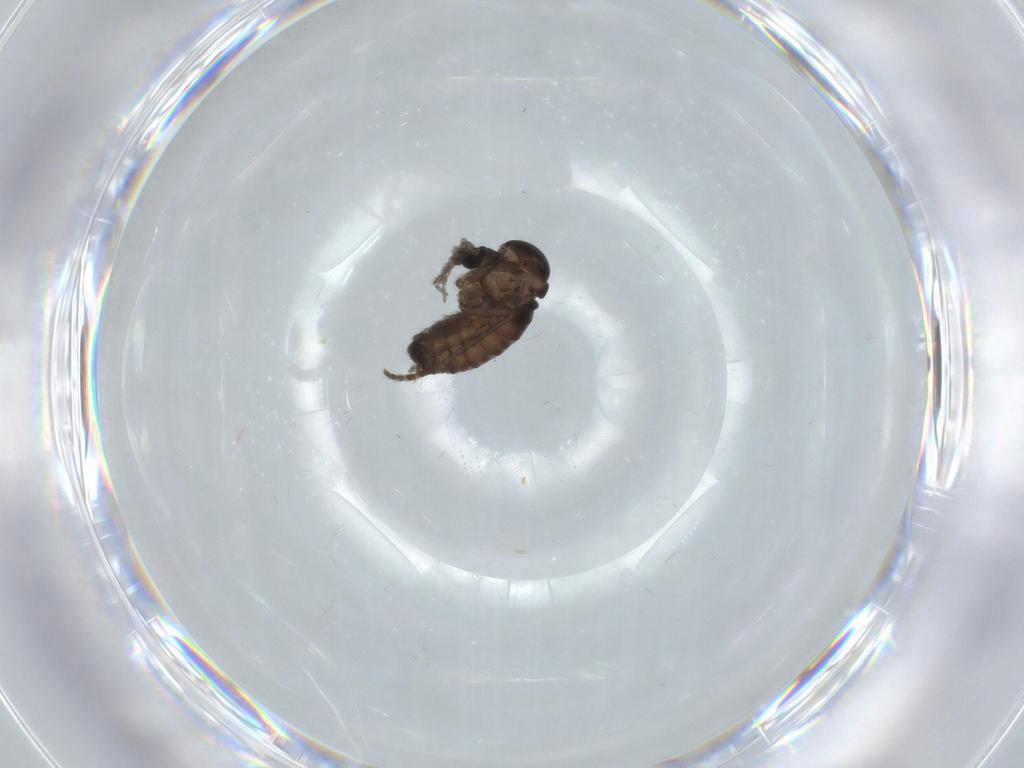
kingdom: Animalia
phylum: Arthropoda
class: Insecta
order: Diptera
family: Psychodidae
